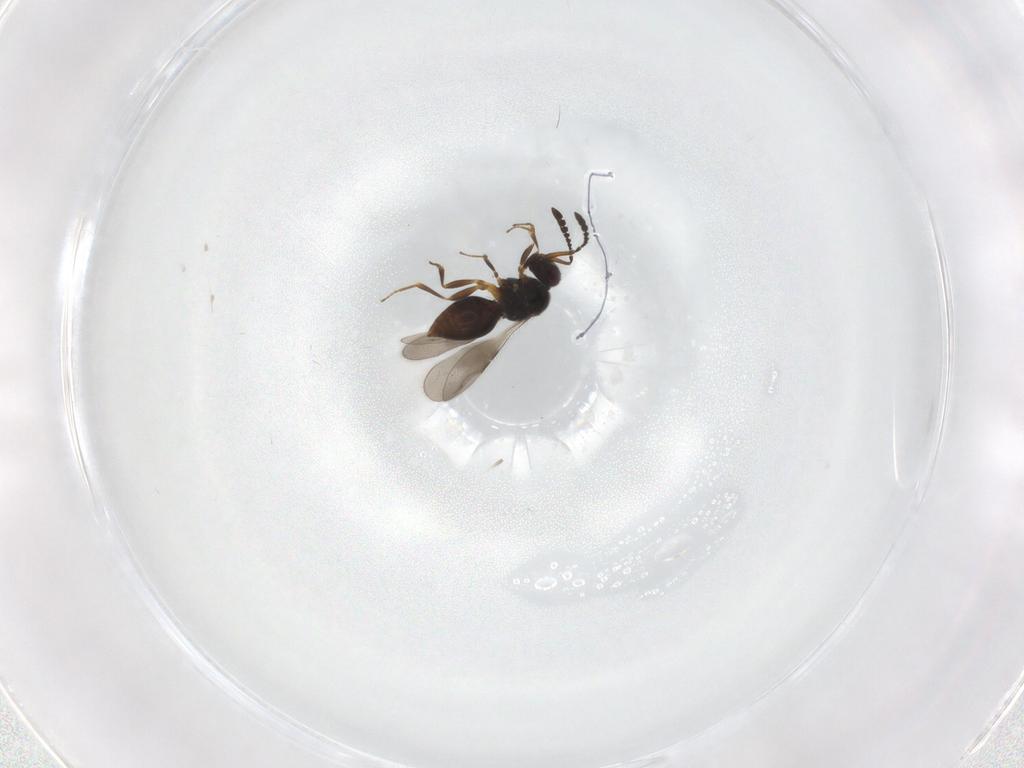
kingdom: Animalia
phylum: Arthropoda
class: Insecta
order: Hymenoptera
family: Ceraphronidae
